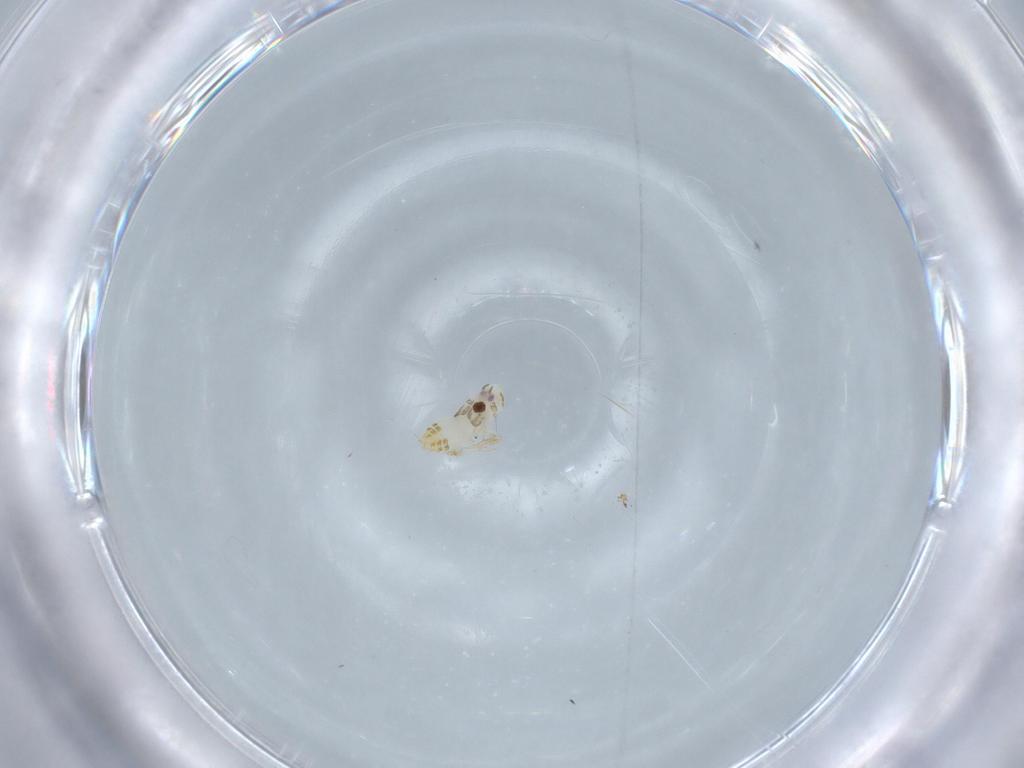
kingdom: Animalia
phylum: Arthropoda
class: Insecta
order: Hemiptera
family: Delphacidae
